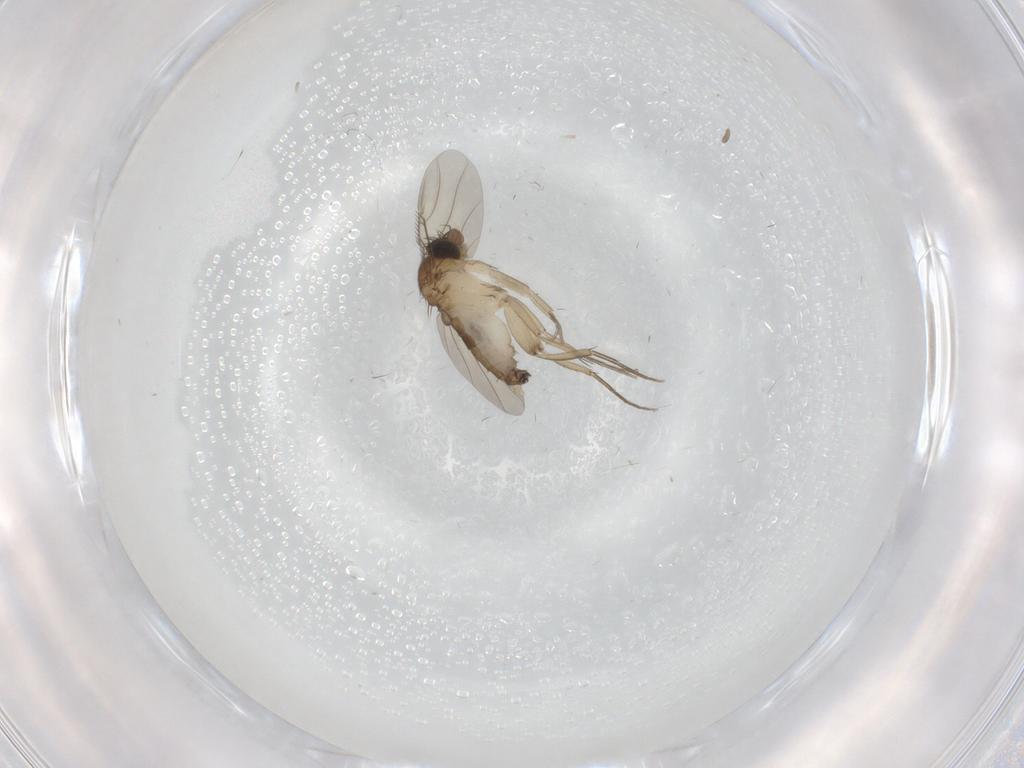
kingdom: Animalia
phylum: Arthropoda
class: Insecta
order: Diptera
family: Phoridae
